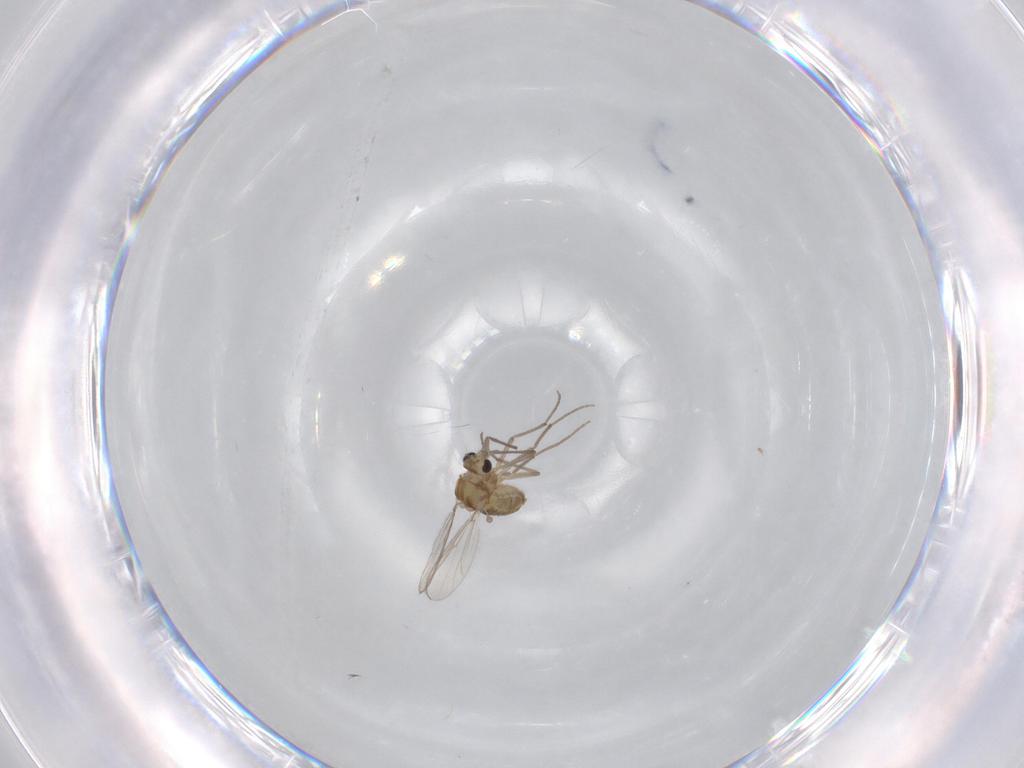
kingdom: Animalia
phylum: Arthropoda
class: Insecta
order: Diptera
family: Chironomidae
